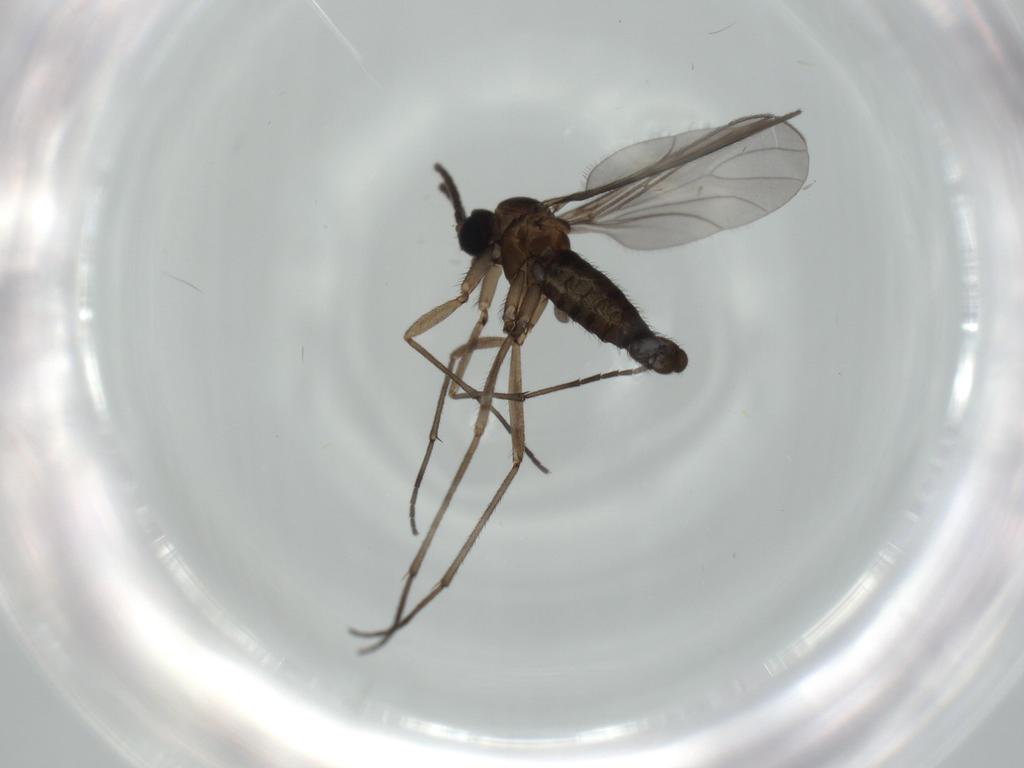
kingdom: Animalia
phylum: Arthropoda
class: Insecta
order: Diptera
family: Sciaridae
